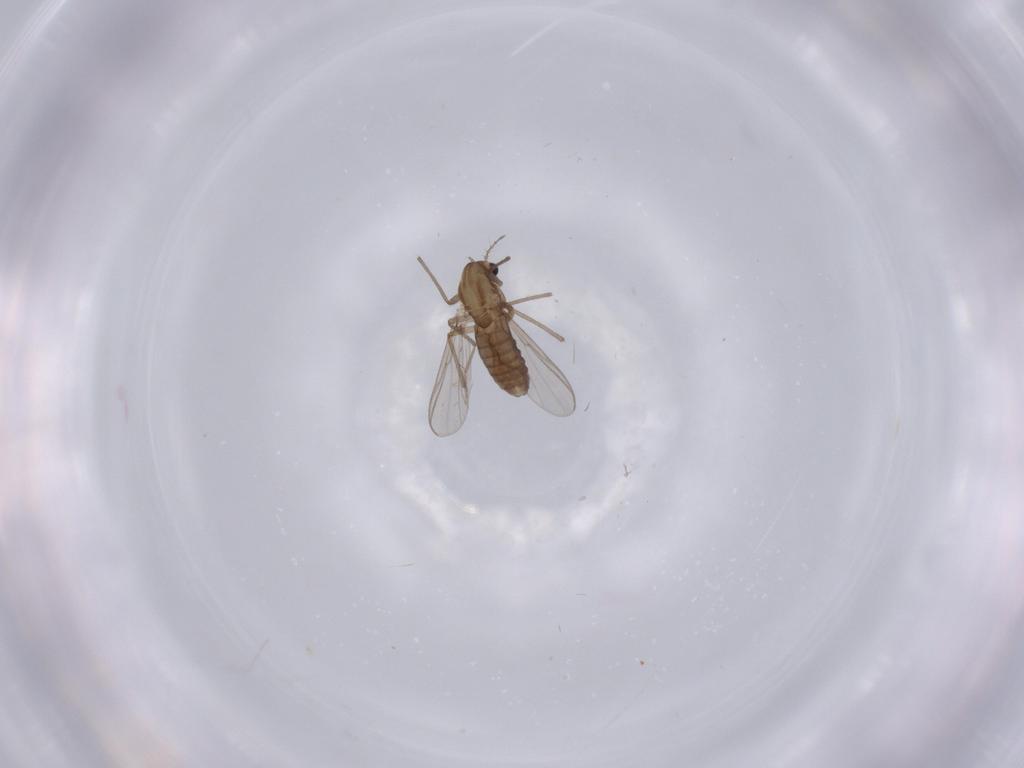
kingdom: Animalia
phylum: Arthropoda
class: Insecta
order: Diptera
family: Chironomidae
